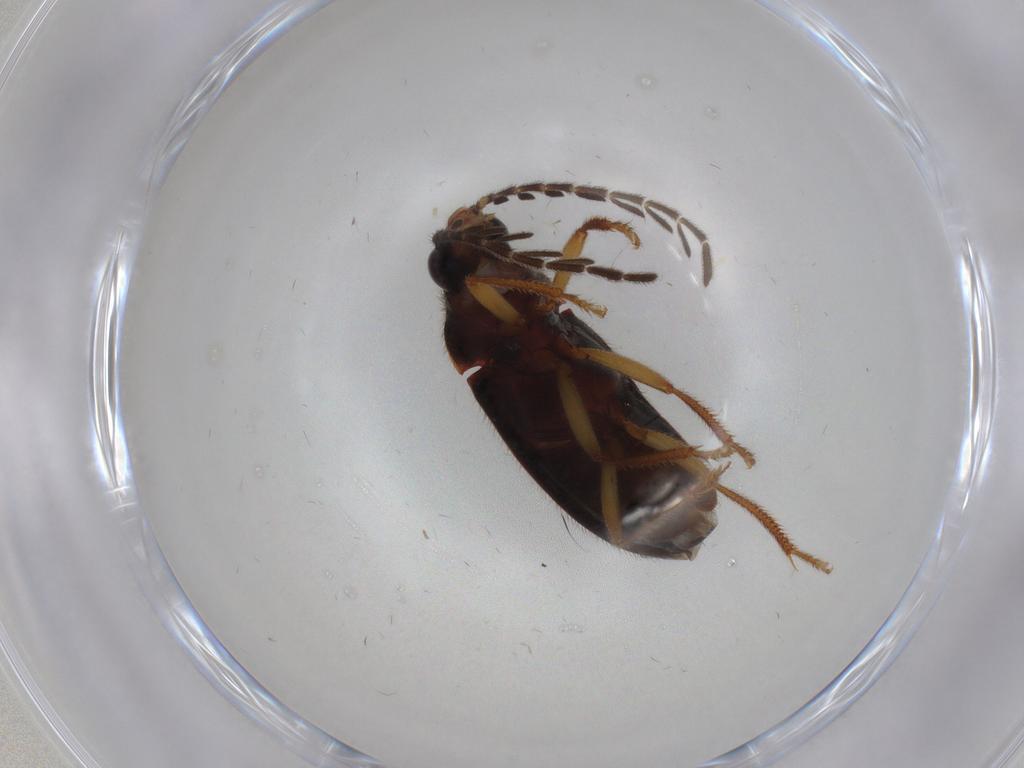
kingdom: Animalia
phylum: Arthropoda
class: Insecta
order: Coleoptera
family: Ptilodactylidae
